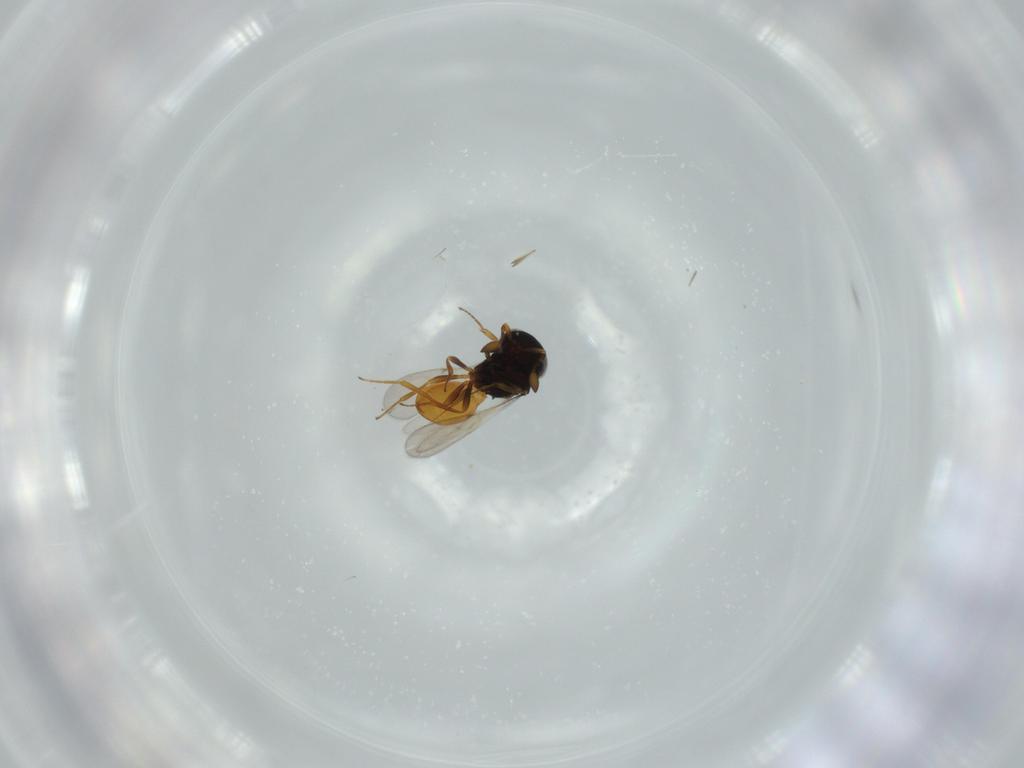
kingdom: Animalia
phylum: Arthropoda
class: Insecta
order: Hymenoptera
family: Scelionidae
